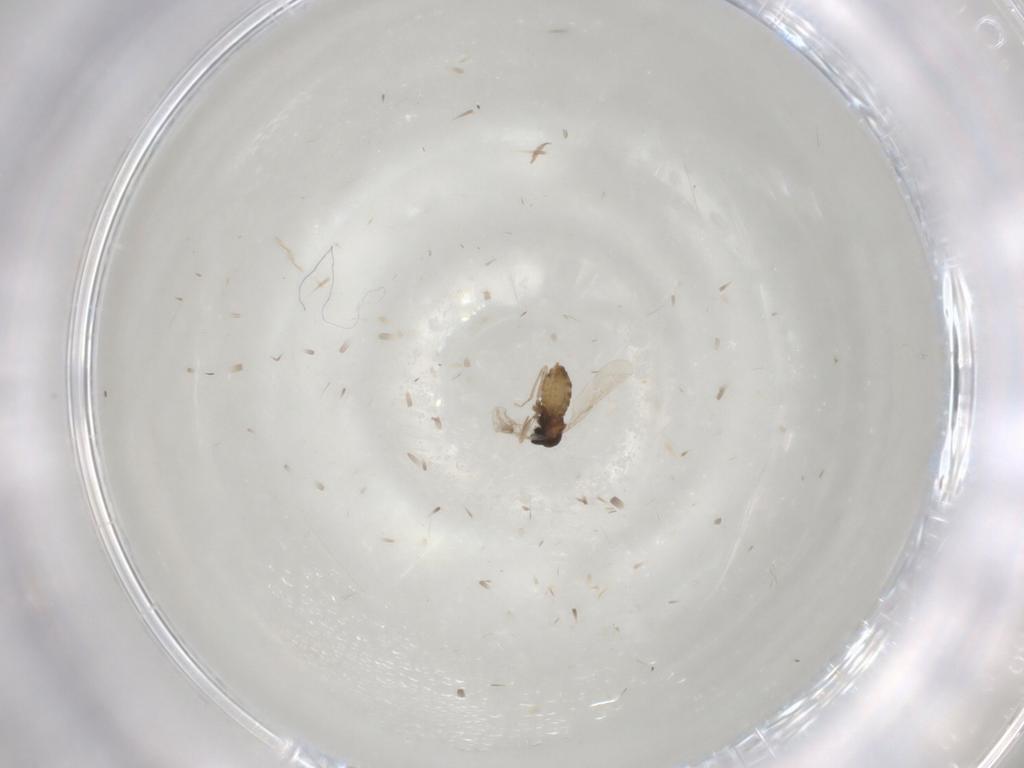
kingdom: Animalia
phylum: Arthropoda
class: Insecta
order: Diptera
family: Cecidomyiidae
